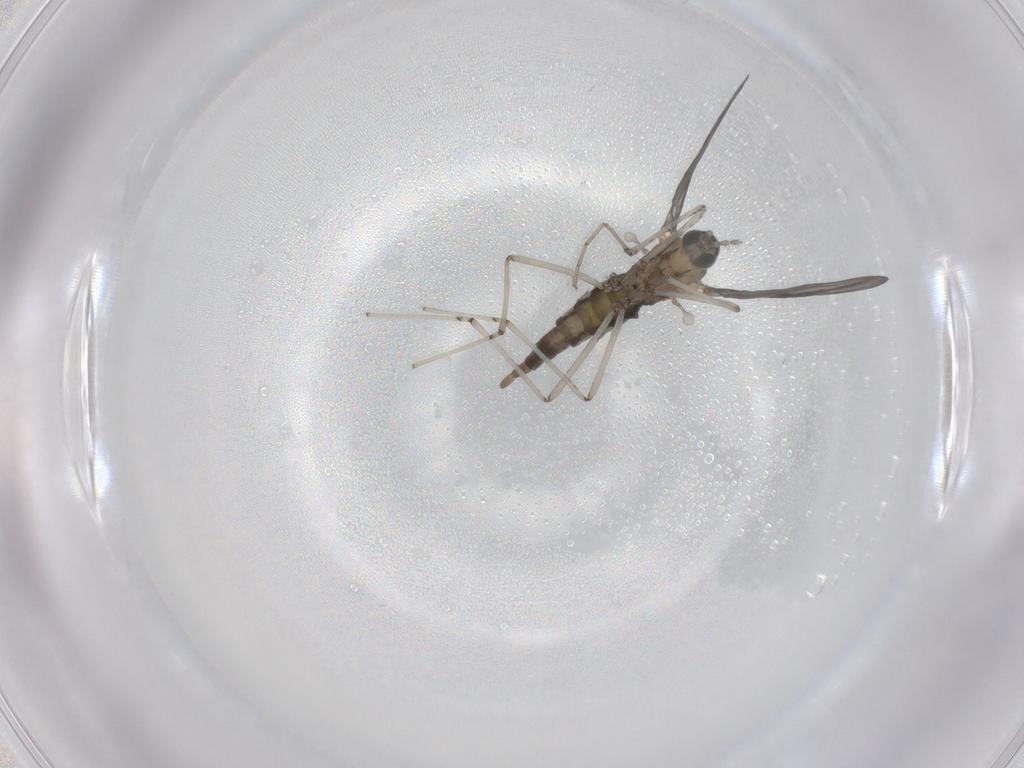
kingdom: Animalia
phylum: Arthropoda
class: Insecta
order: Diptera
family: Cecidomyiidae
